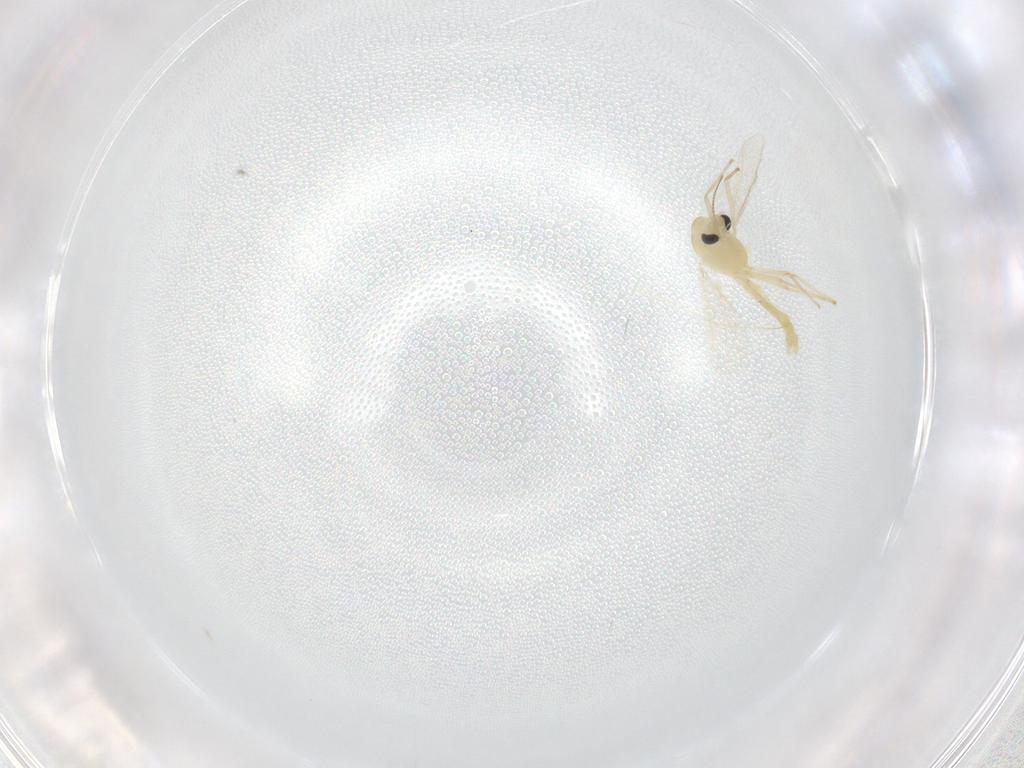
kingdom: Animalia
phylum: Arthropoda
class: Insecta
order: Diptera
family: Chironomidae
